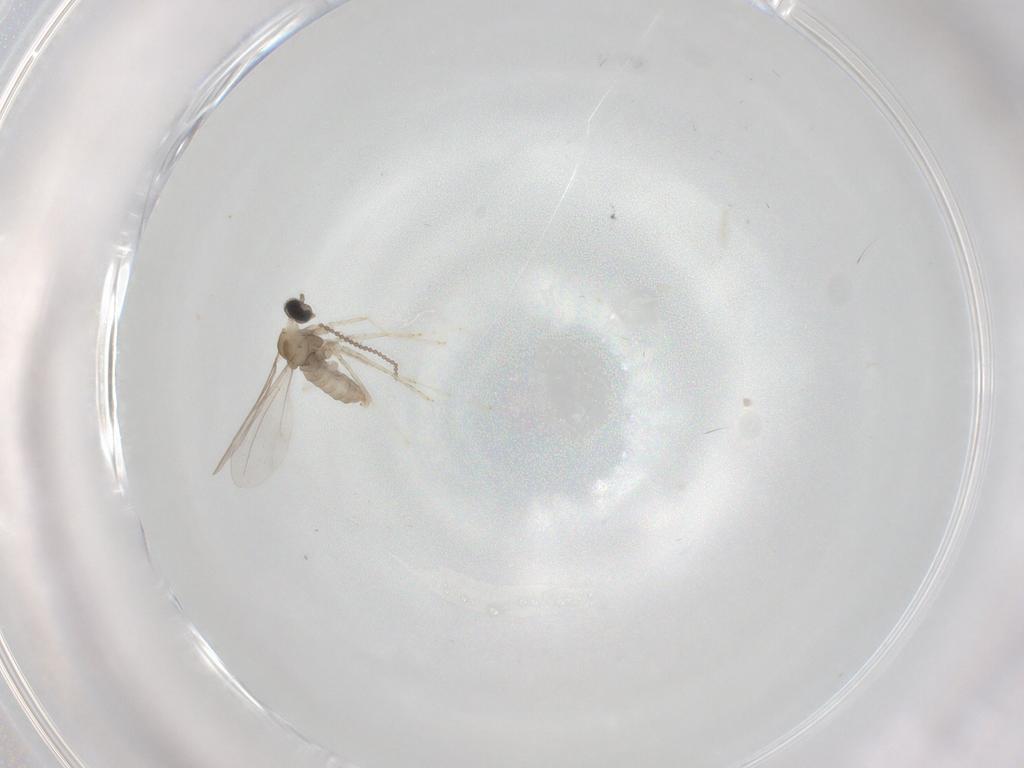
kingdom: Animalia
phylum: Arthropoda
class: Insecta
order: Diptera
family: Cecidomyiidae
